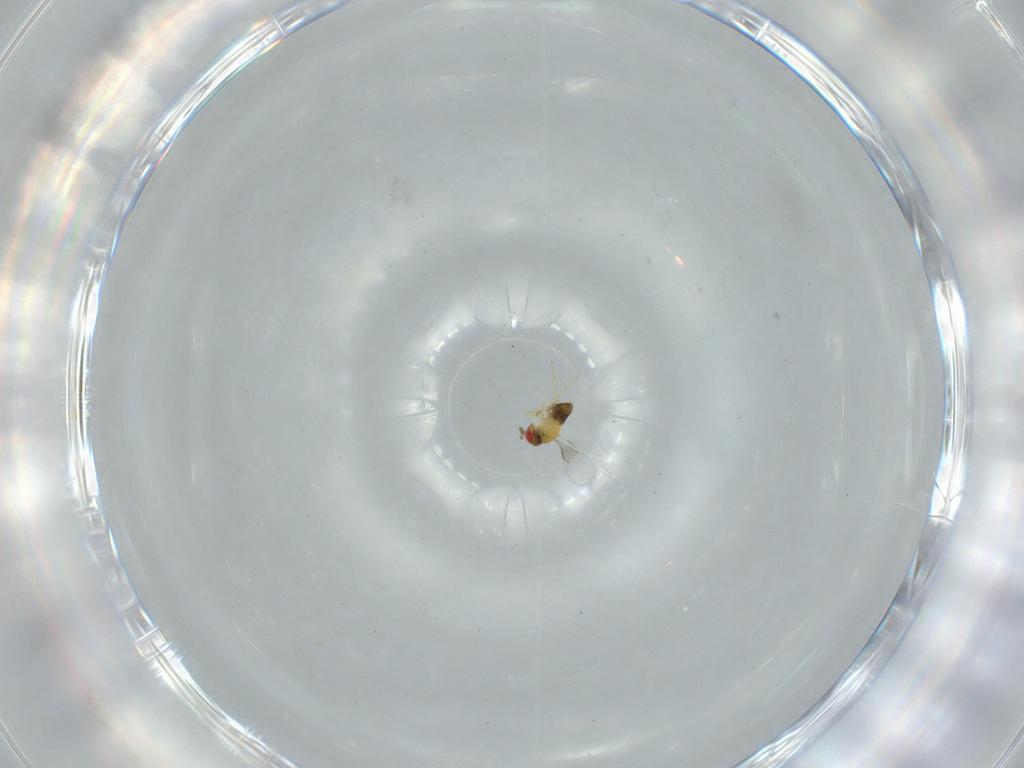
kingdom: Animalia
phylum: Arthropoda
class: Insecta
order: Hymenoptera
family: Trichogrammatidae
